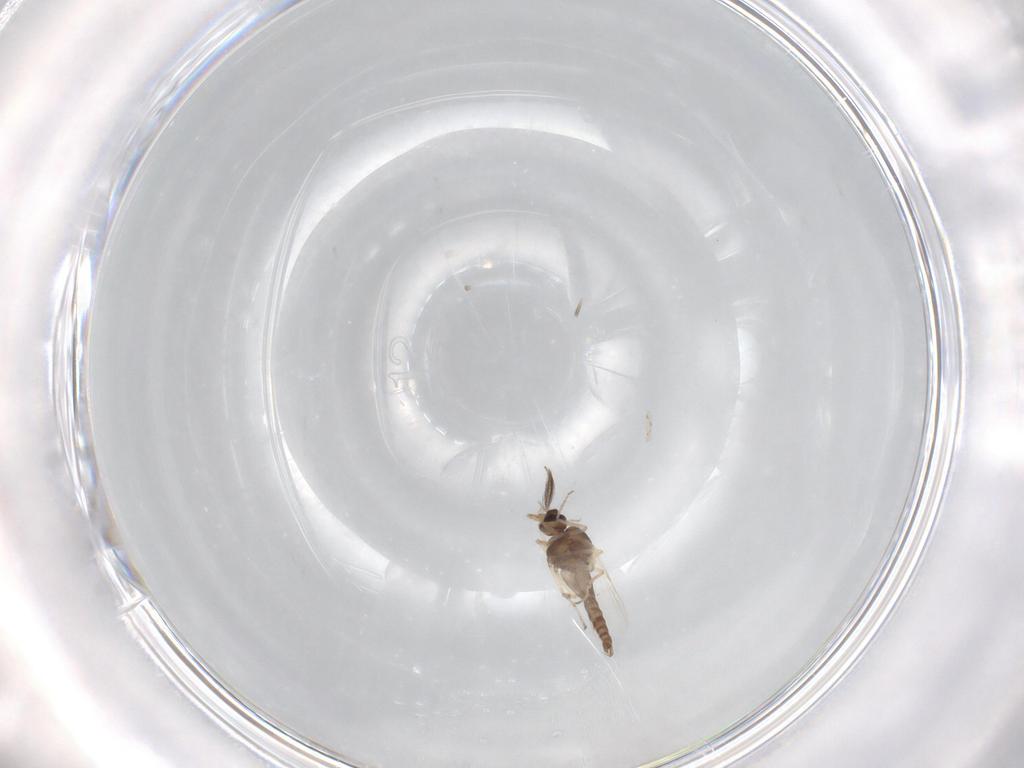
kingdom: Animalia
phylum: Arthropoda
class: Insecta
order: Diptera
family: Ceratopogonidae
